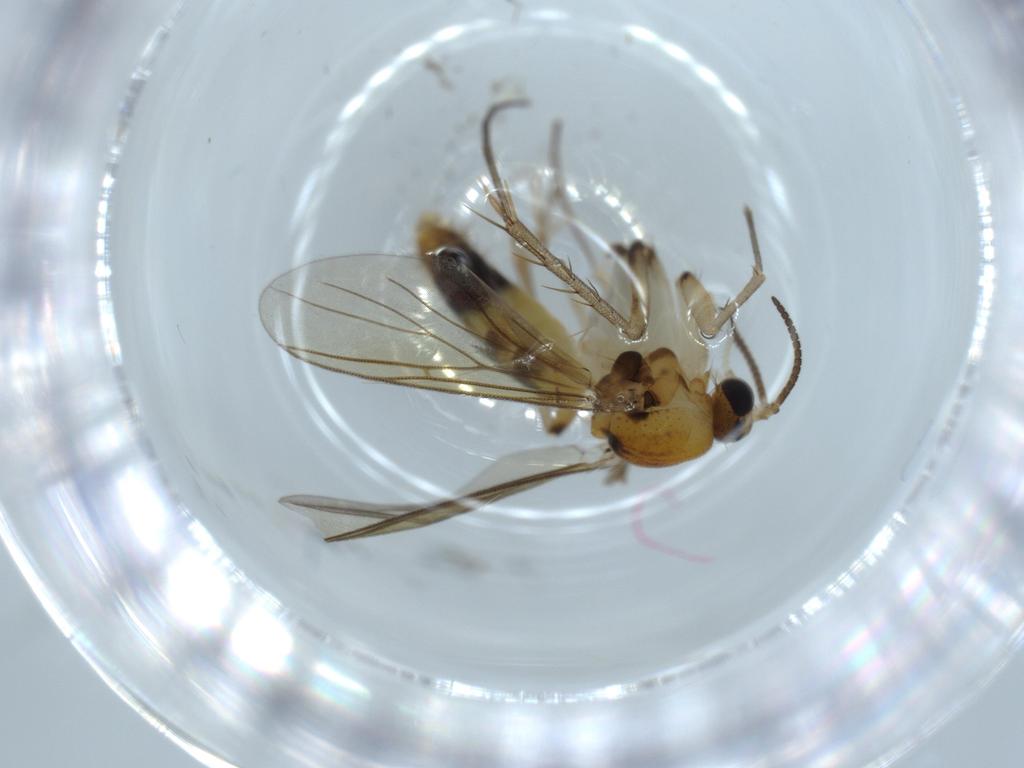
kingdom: Animalia
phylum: Arthropoda
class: Insecta
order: Diptera
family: Mycetophilidae
